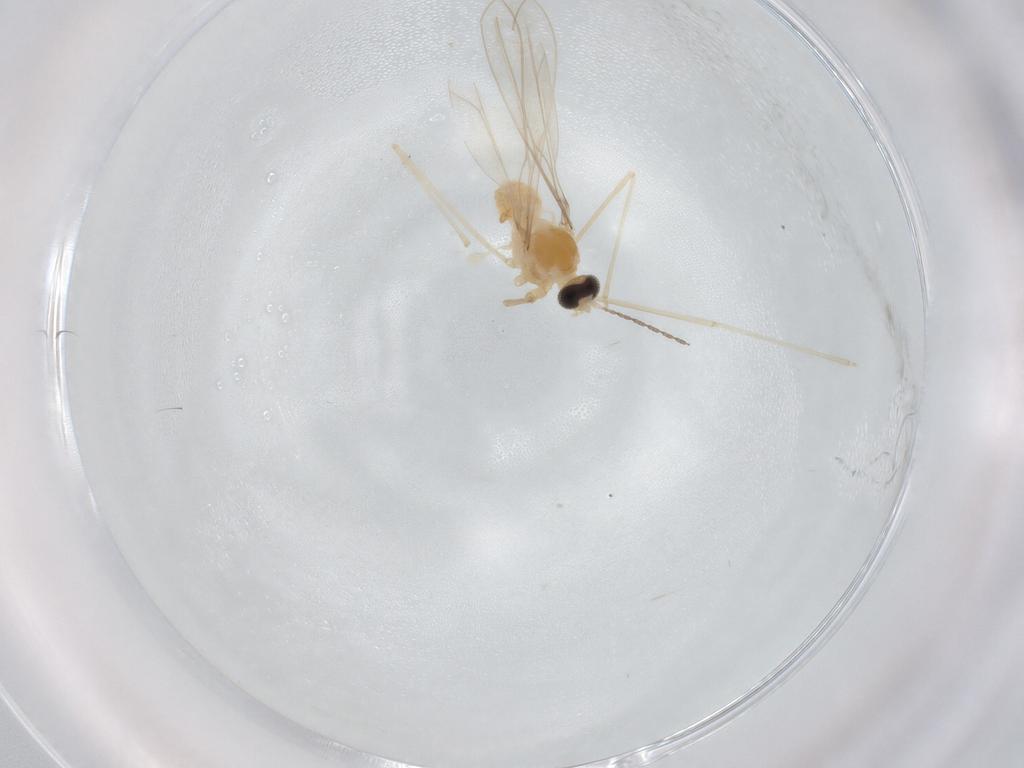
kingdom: Animalia
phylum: Arthropoda
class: Insecta
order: Diptera
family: Cecidomyiidae
